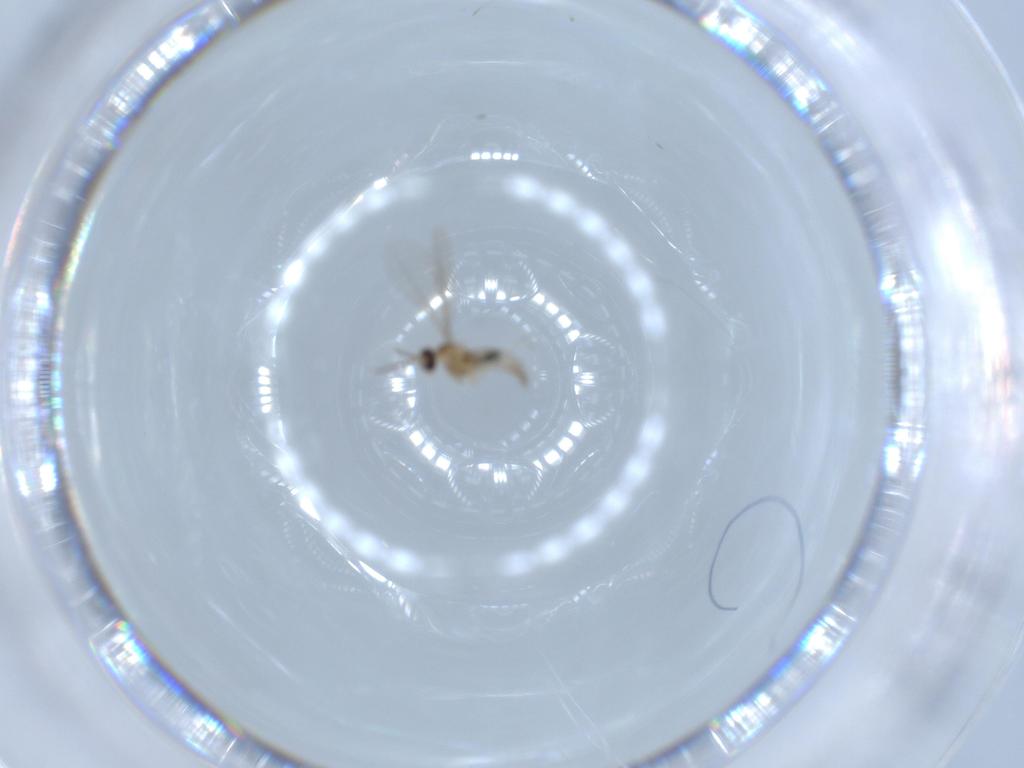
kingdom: Animalia
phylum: Arthropoda
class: Insecta
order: Diptera
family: Cecidomyiidae
